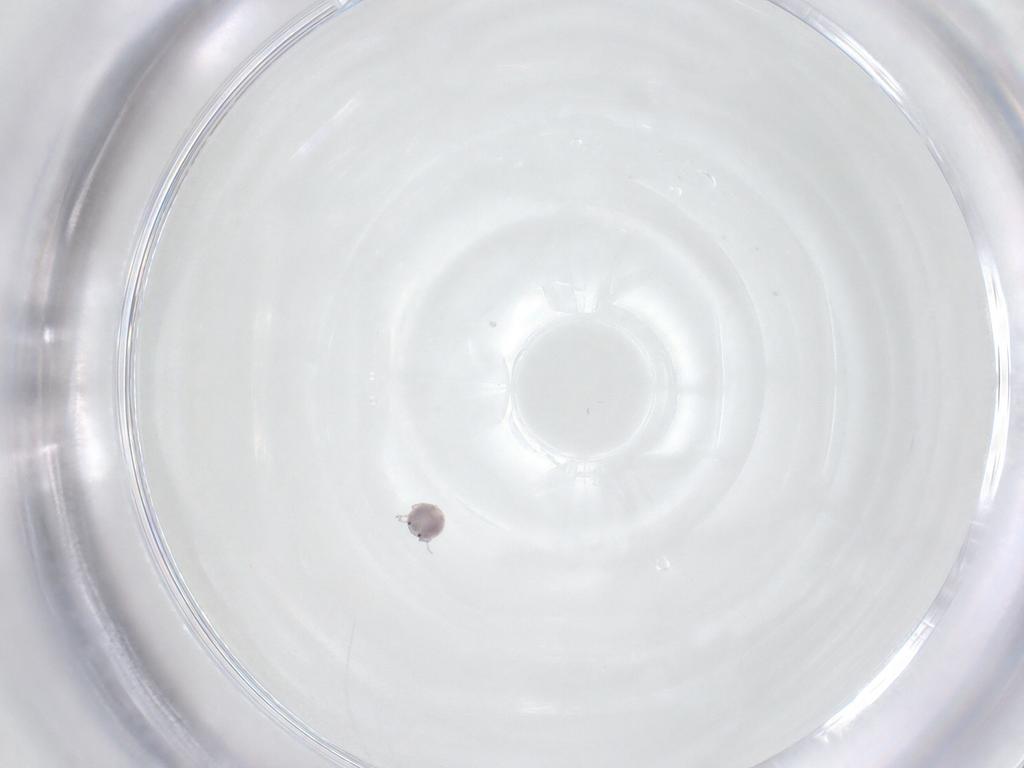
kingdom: Animalia
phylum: Arthropoda
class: Arachnida
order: Trombidiformes
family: Pionidae
